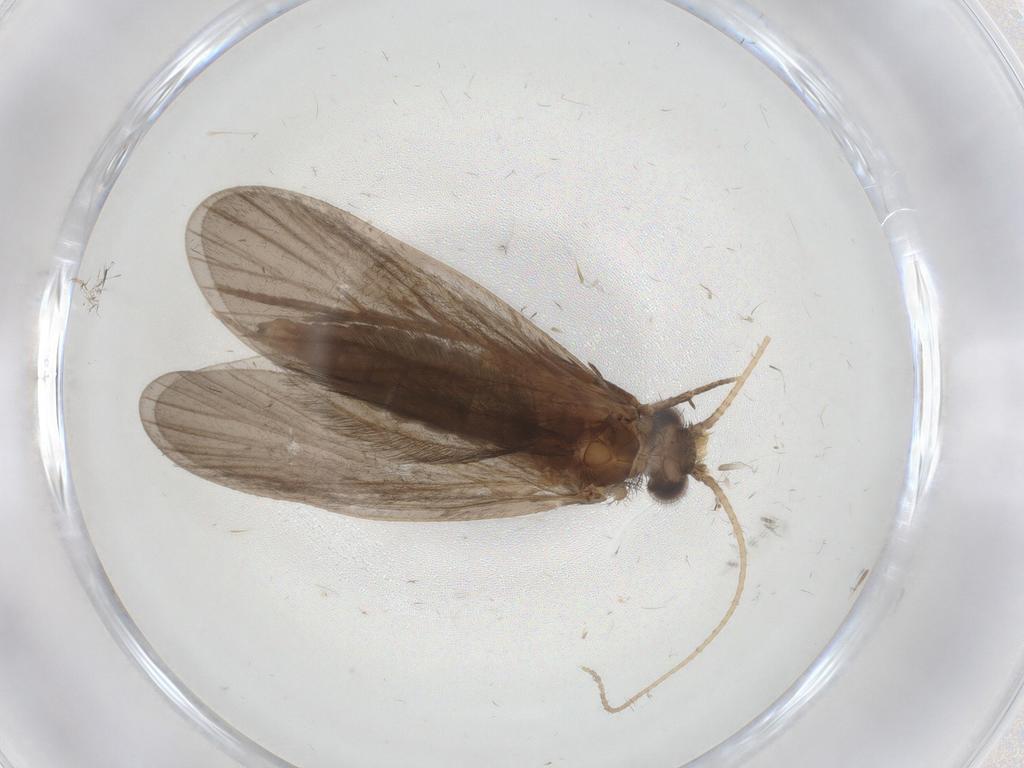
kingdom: Animalia
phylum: Arthropoda
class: Insecta
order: Trichoptera
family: Philopotamidae
